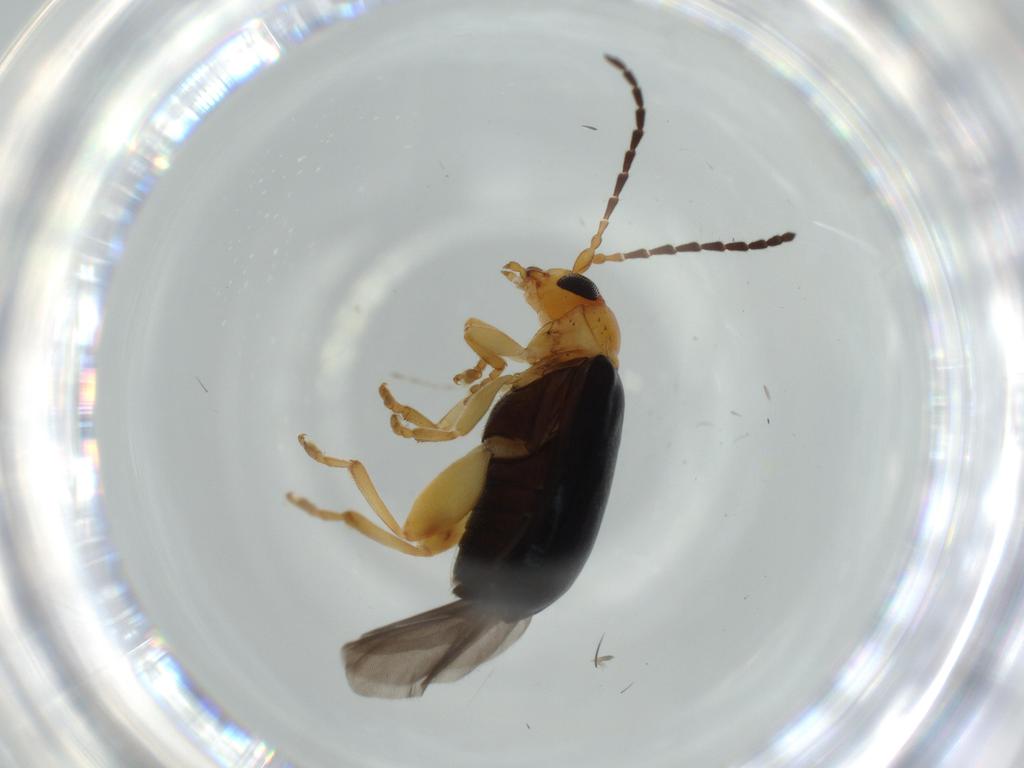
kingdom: Animalia
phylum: Arthropoda
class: Insecta
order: Coleoptera
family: Chrysomelidae
